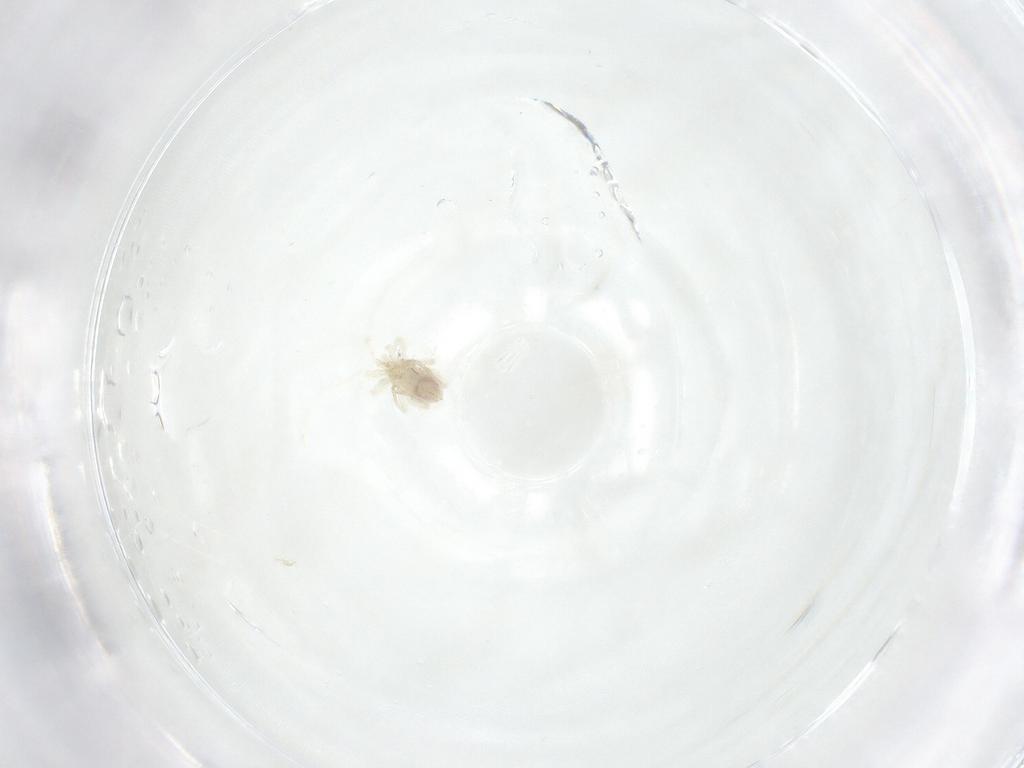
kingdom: Animalia
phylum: Arthropoda
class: Arachnida
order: Trombidiformes
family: Anystidae
